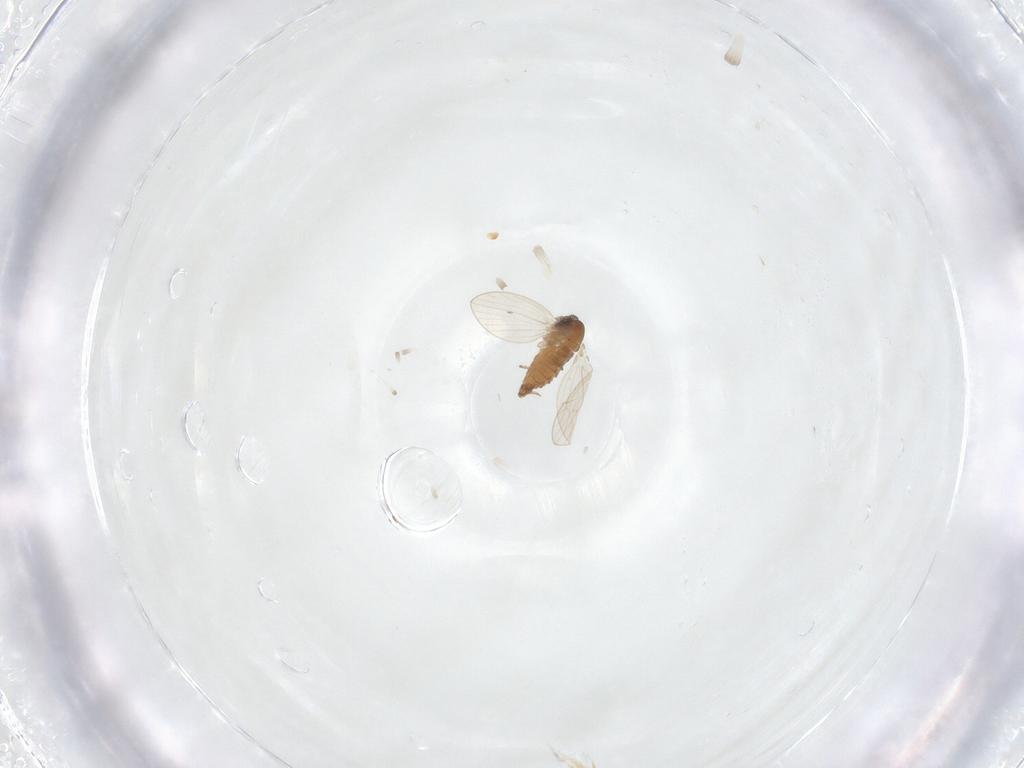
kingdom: Animalia
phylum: Arthropoda
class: Insecta
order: Diptera
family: Psychodidae
